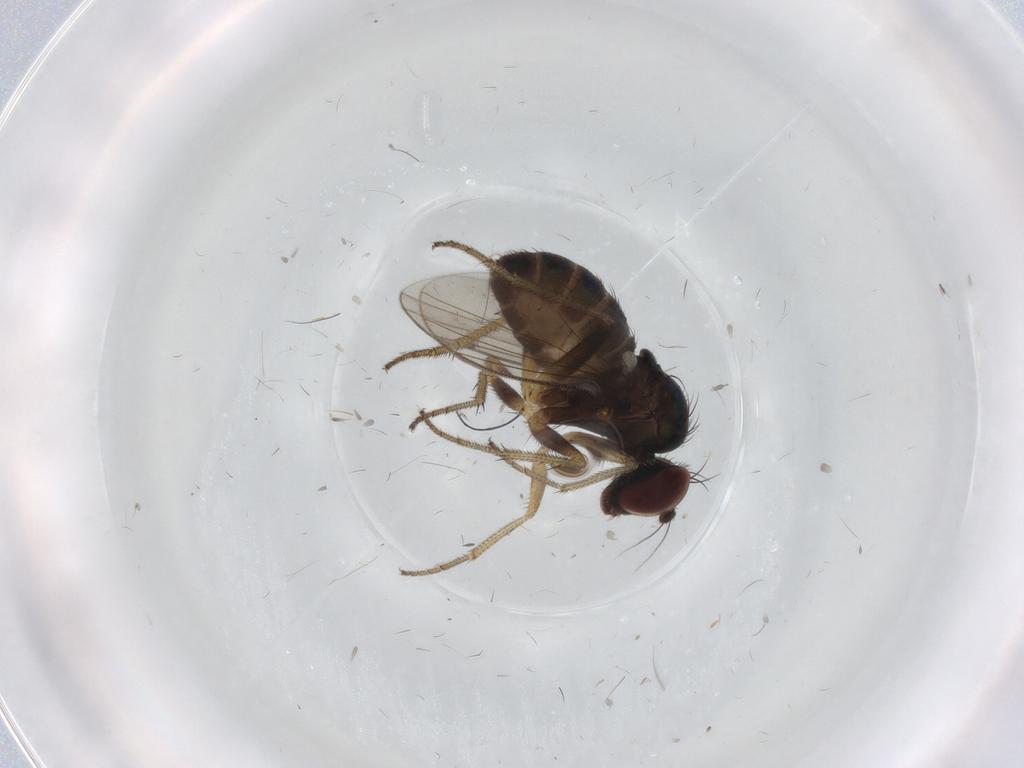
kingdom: Animalia
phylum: Arthropoda
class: Insecta
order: Diptera
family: Dolichopodidae
